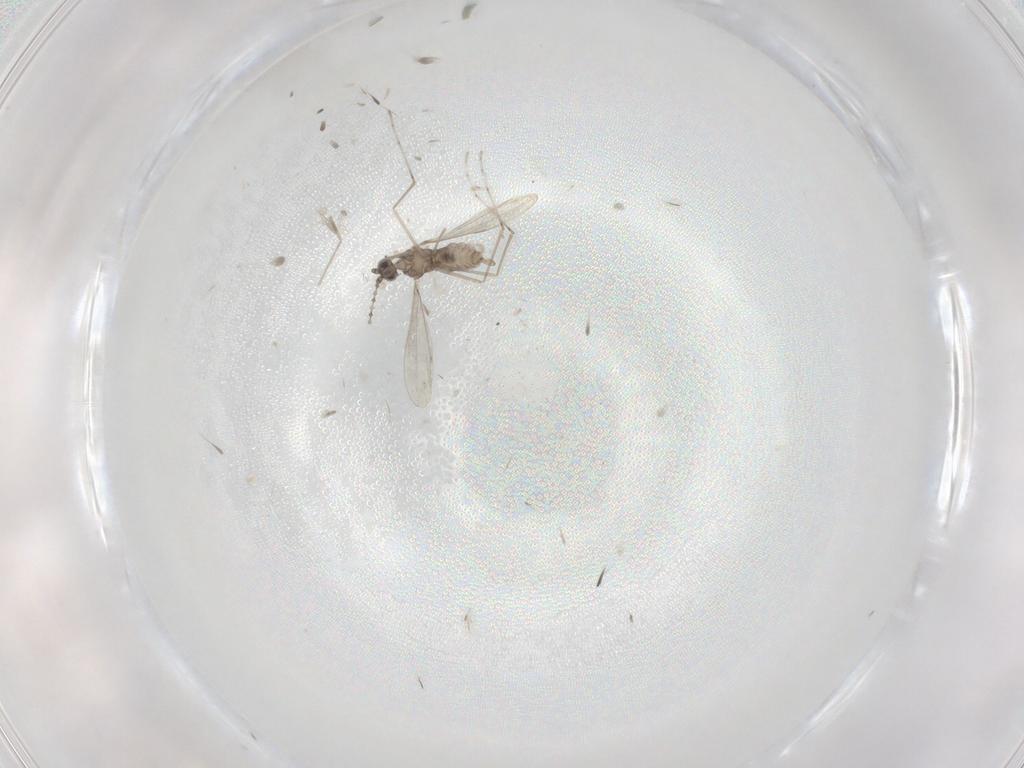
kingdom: Animalia
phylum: Arthropoda
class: Insecta
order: Diptera
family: Cecidomyiidae
